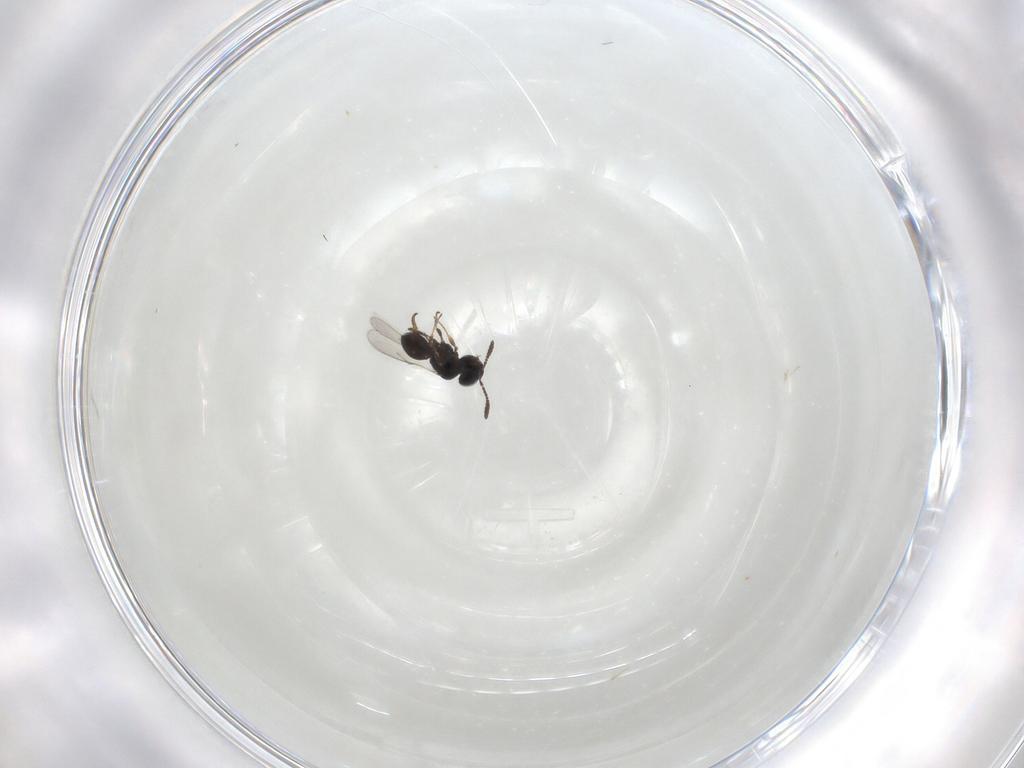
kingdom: Animalia
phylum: Arthropoda
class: Insecta
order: Hymenoptera
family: Scelionidae
